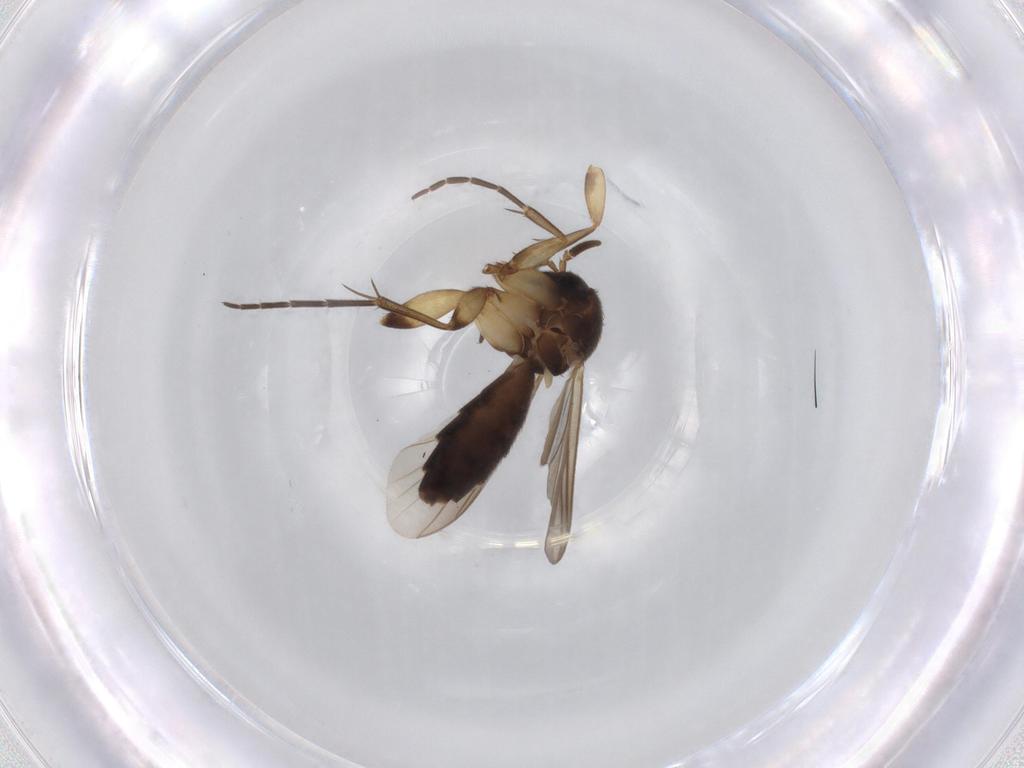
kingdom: Animalia
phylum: Arthropoda
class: Insecta
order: Diptera
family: Mycetophilidae
